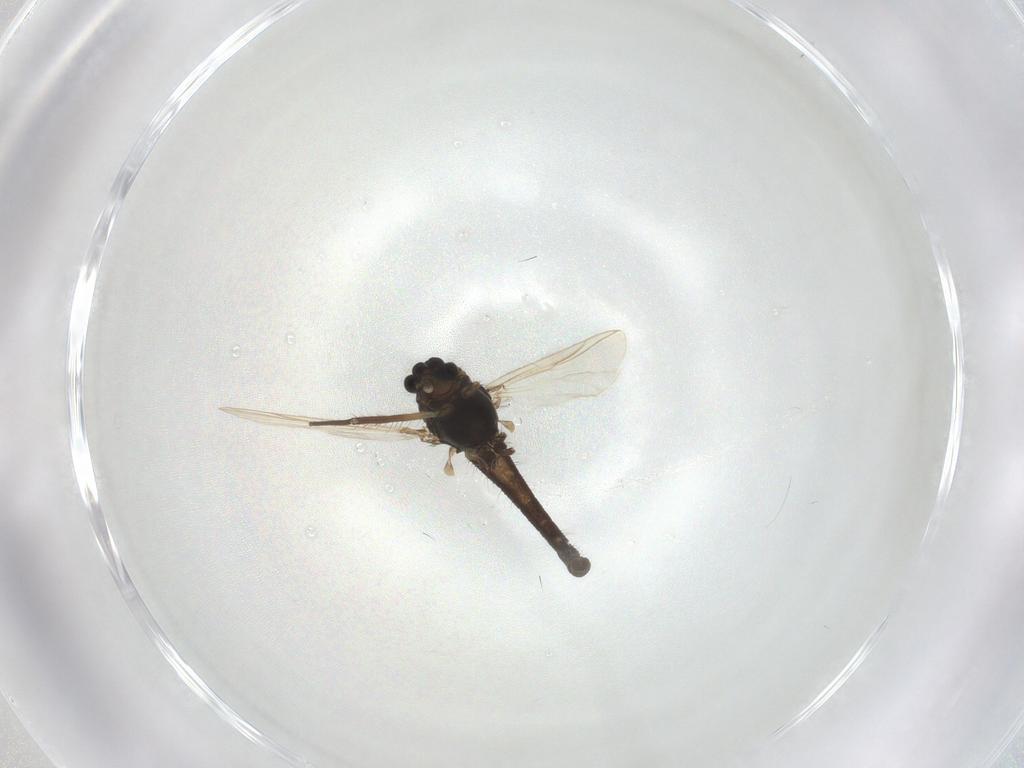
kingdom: Animalia
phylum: Arthropoda
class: Insecta
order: Diptera
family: Chironomidae
